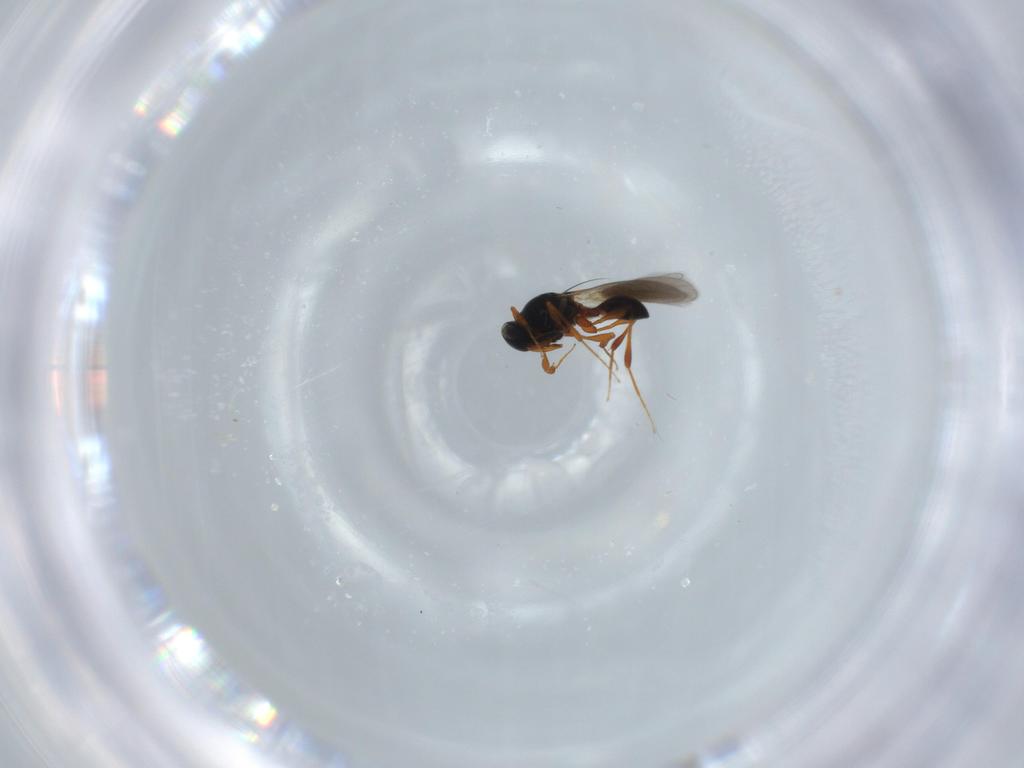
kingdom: Animalia
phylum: Arthropoda
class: Insecta
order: Hymenoptera
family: Platygastridae
